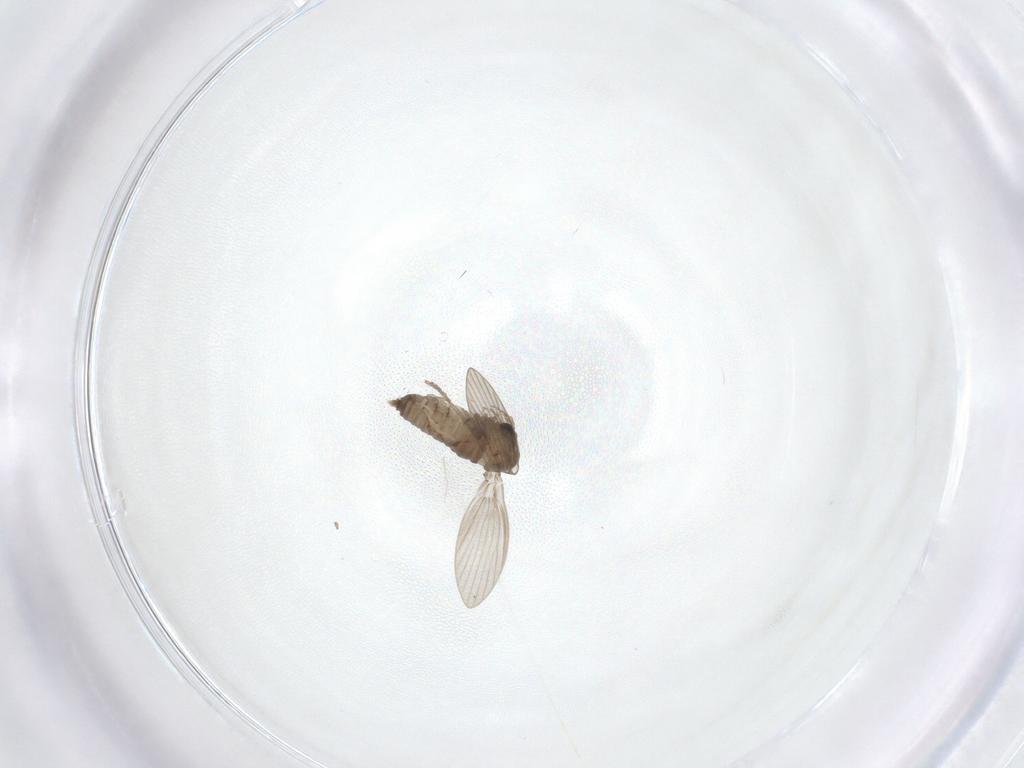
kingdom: Animalia
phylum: Arthropoda
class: Insecta
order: Diptera
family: Psychodidae
